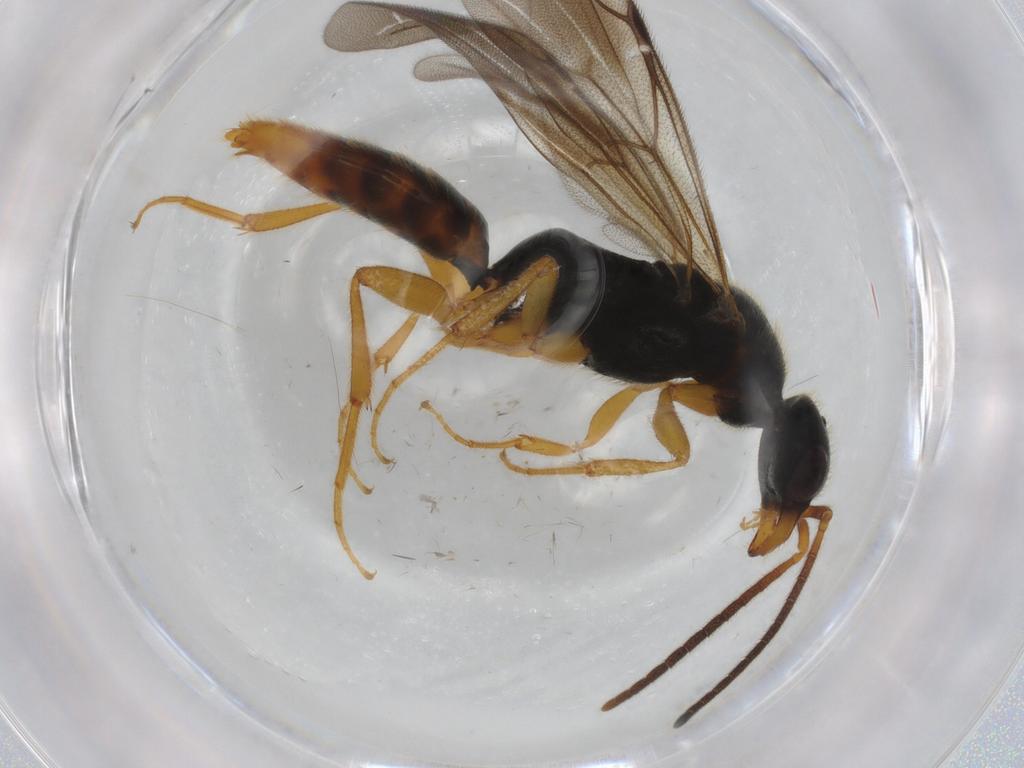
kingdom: Animalia
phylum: Arthropoda
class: Insecta
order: Hymenoptera
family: Bethylidae
